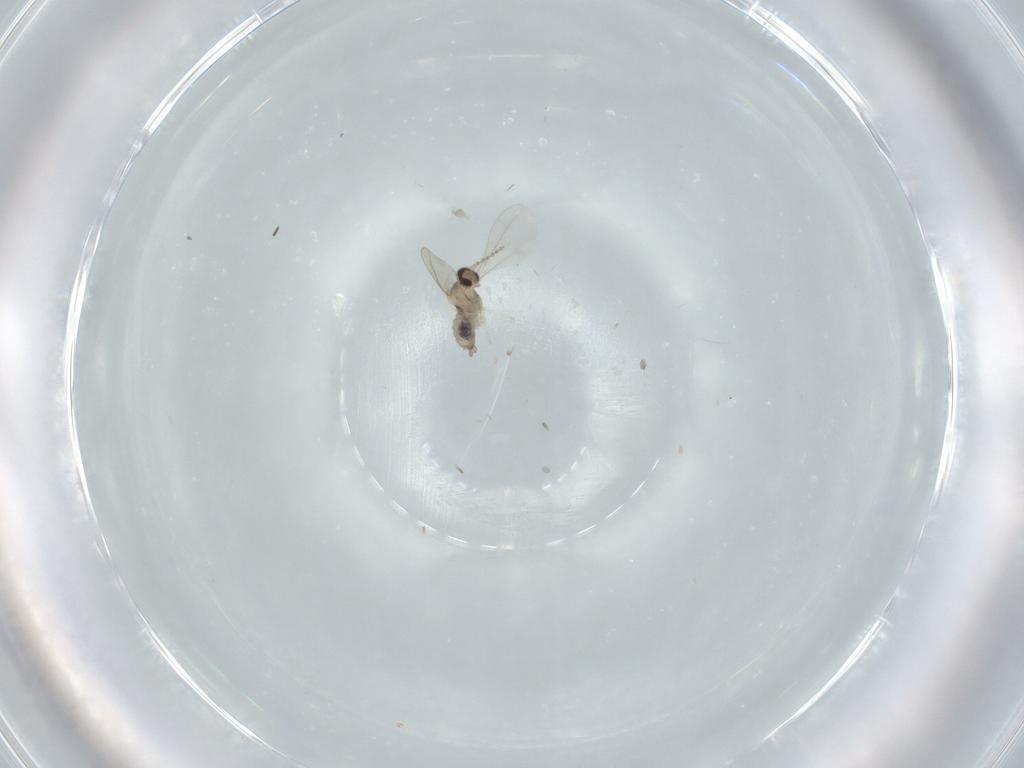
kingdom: Animalia
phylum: Arthropoda
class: Insecta
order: Diptera
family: Cecidomyiidae
